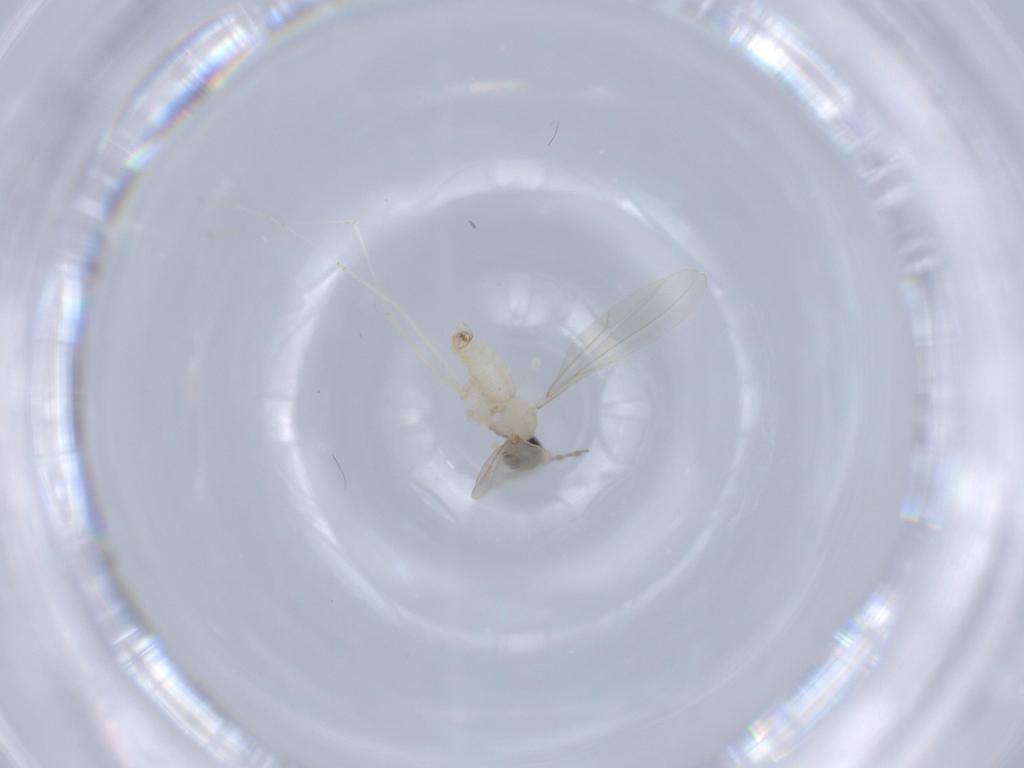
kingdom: Animalia
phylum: Arthropoda
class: Insecta
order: Diptera
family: Cecidomyiidae
